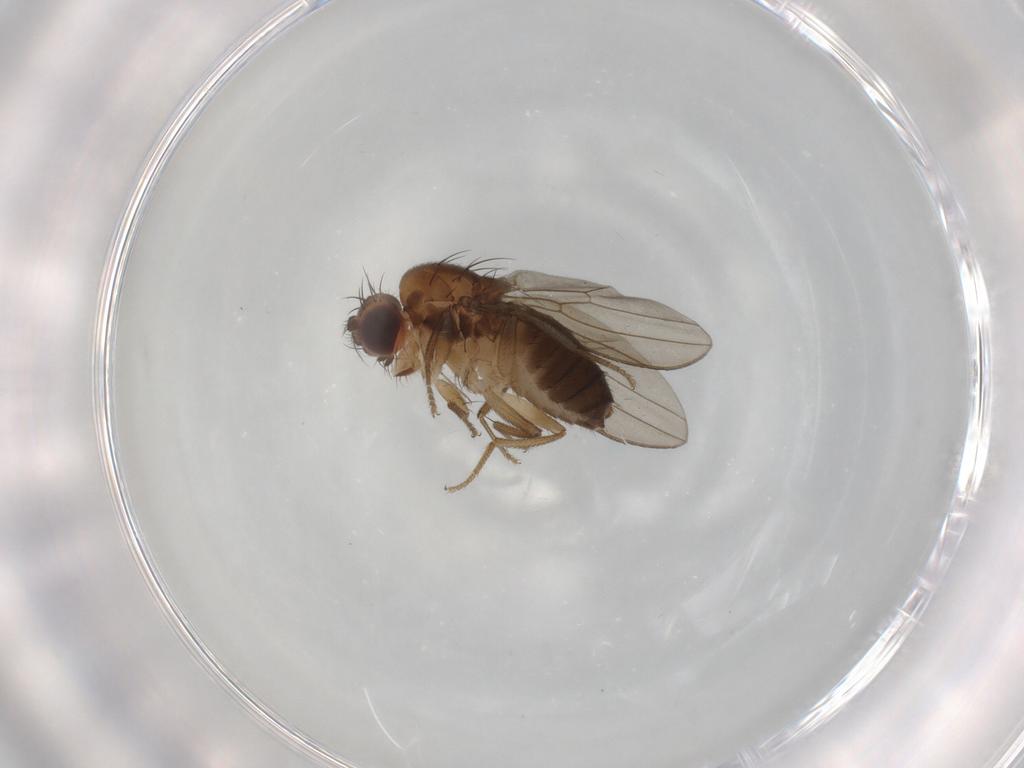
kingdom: Animalia
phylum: Arthropoda
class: Insecta
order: Diptera
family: Drosophilidae
